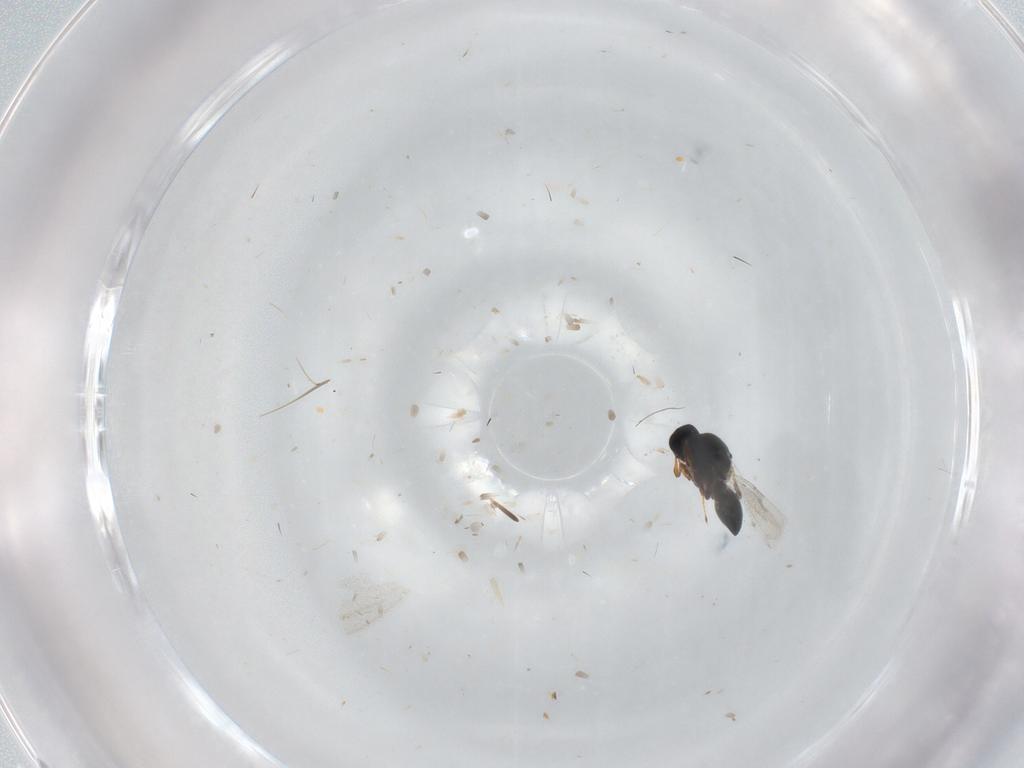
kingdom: Animalia
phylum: Arthropoda
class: Insecta
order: Hymenoptera
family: Platygastridae
